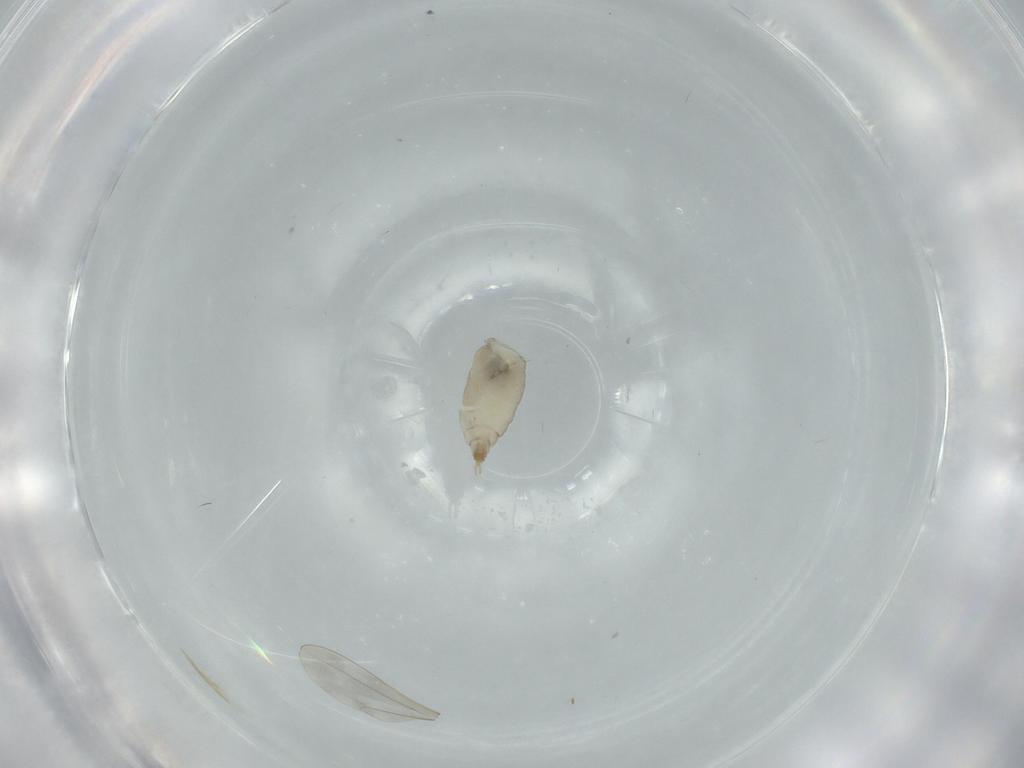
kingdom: Animalia
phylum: Arthropoda
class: Insecta
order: Diptera
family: Cecidomyiidae
